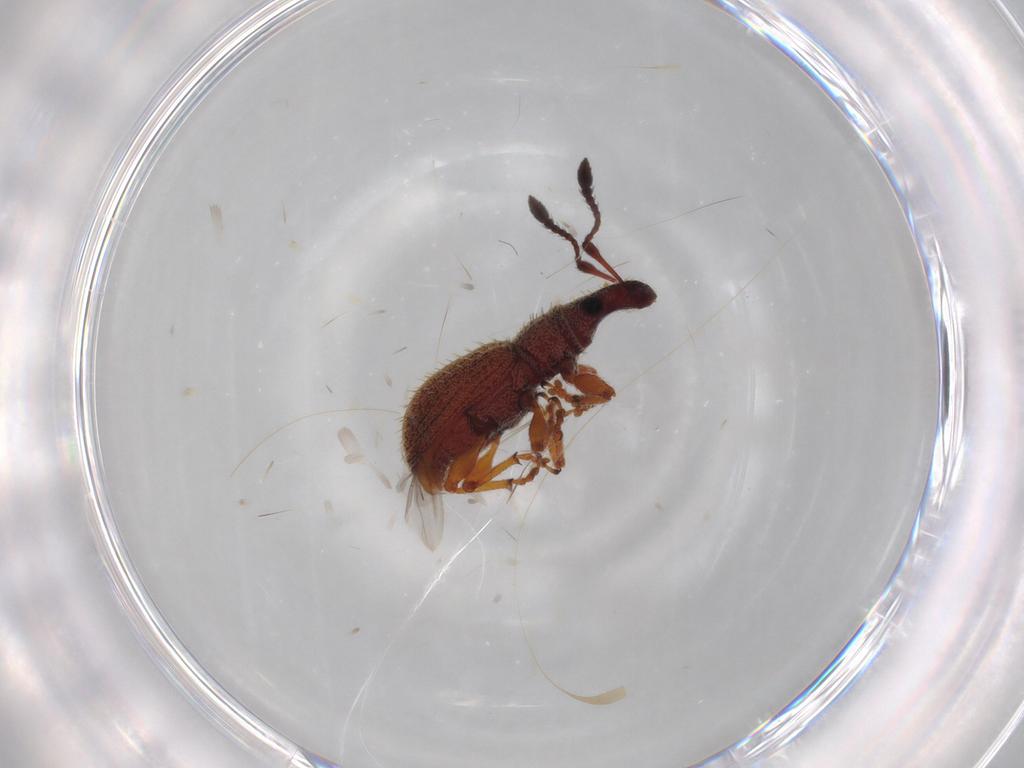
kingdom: Animalia
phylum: Arthropoda
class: Insecta
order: Coleoptera
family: Curculionidae
